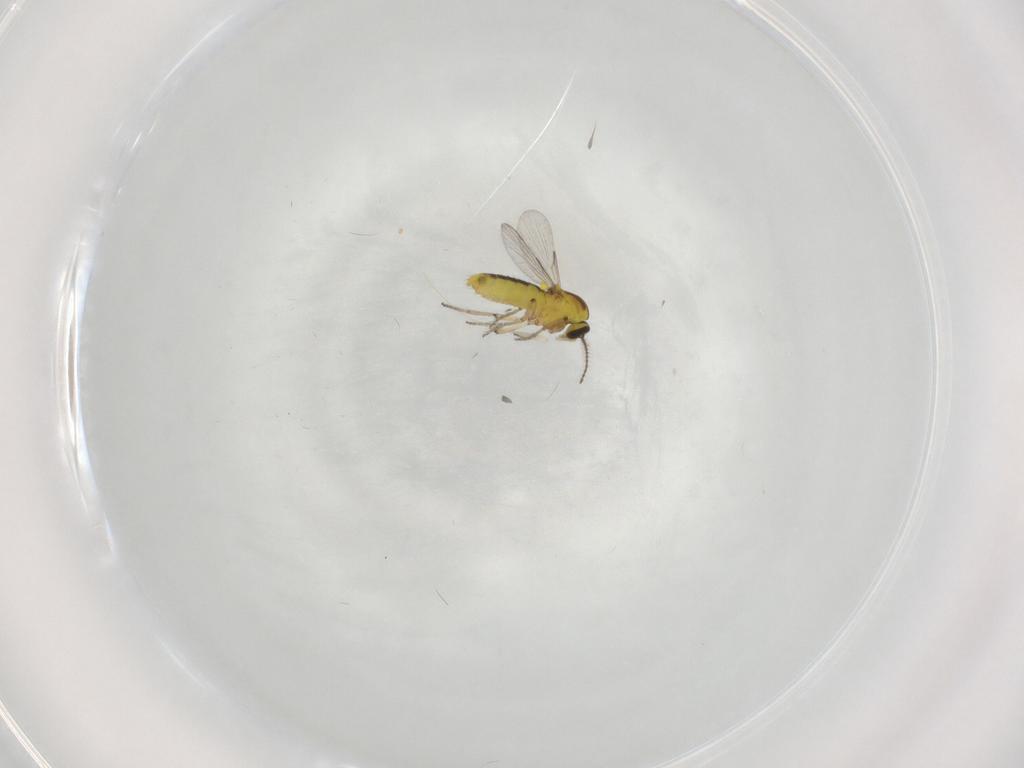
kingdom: Animalia
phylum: Arthropoda
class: Insecta
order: Diptera
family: Ceratopogonidae
